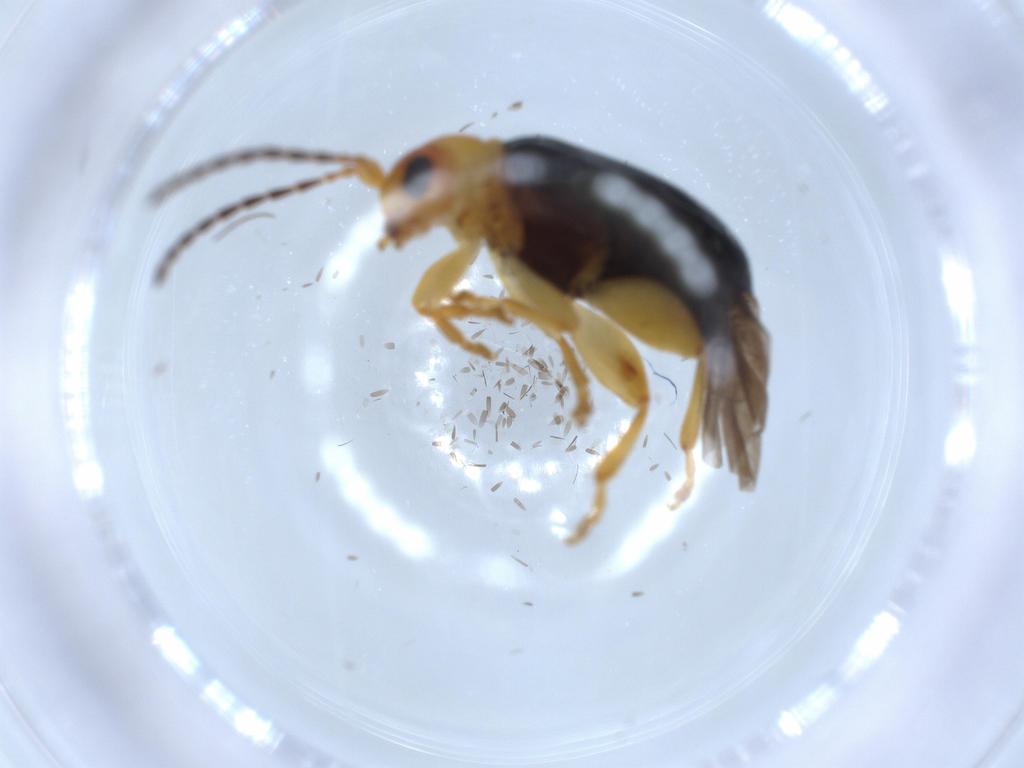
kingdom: Animalia
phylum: Arthropoda
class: Insecta
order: Coleoptera
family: Chrysomelidae
